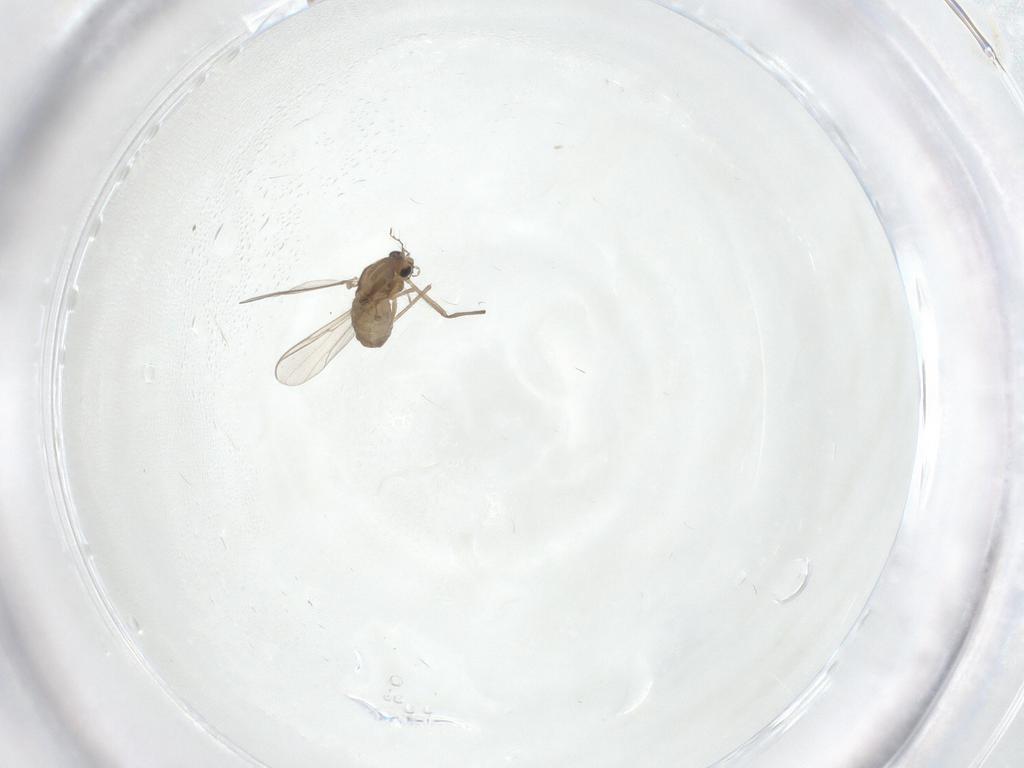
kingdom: Animalia
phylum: Arthropoda
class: Insecta
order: Diptera
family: Chironomidae
